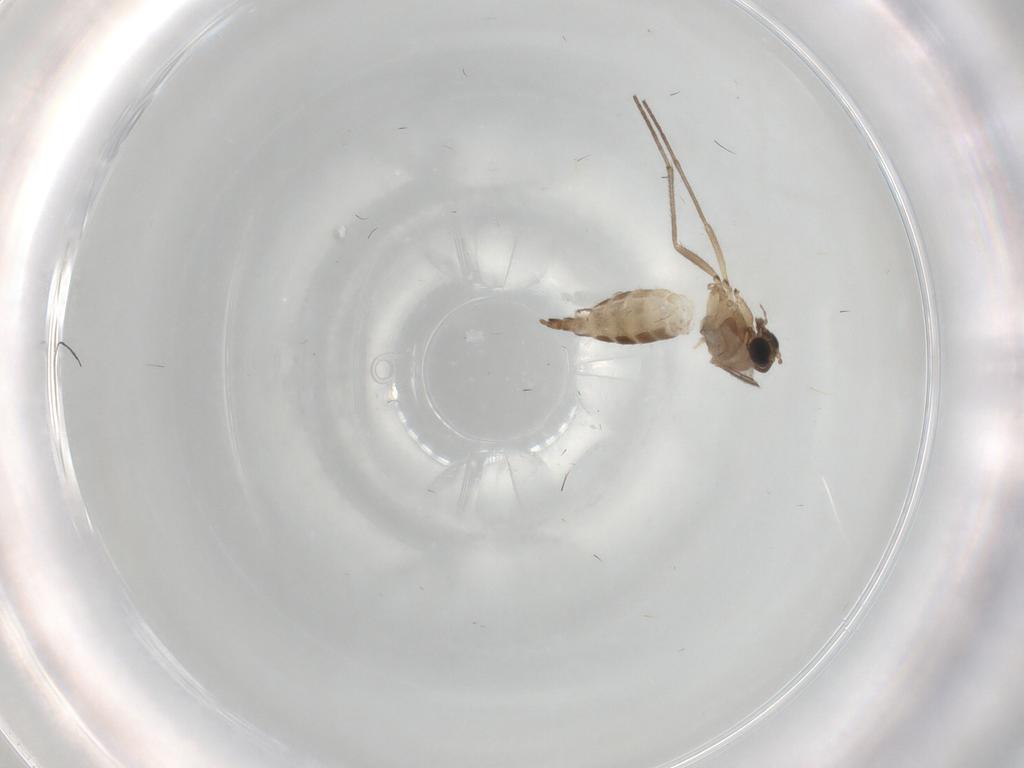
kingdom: Animalia
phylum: Arthropoda
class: Insecta
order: Diptera
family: Sciaridae
